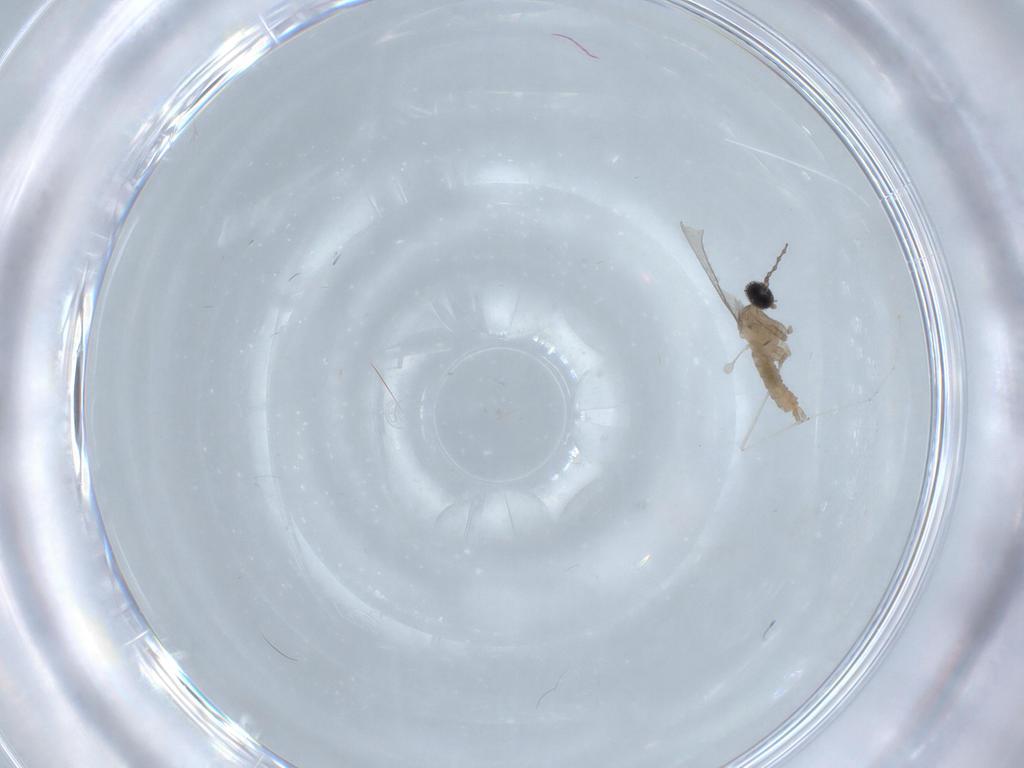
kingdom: Animalia
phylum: Arthropoda
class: Insecta
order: Diptera
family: Cecidomyiidae
